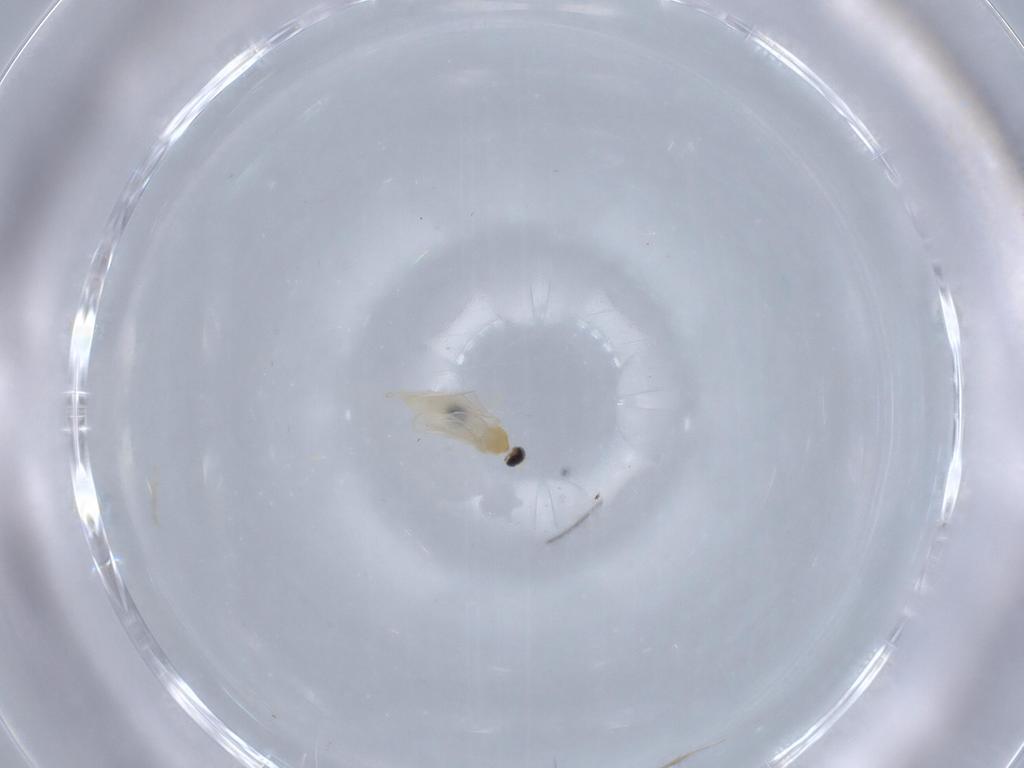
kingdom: Animalia
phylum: Arthropoda
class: Insecta
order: Diptera
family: Cecidomyiidae
